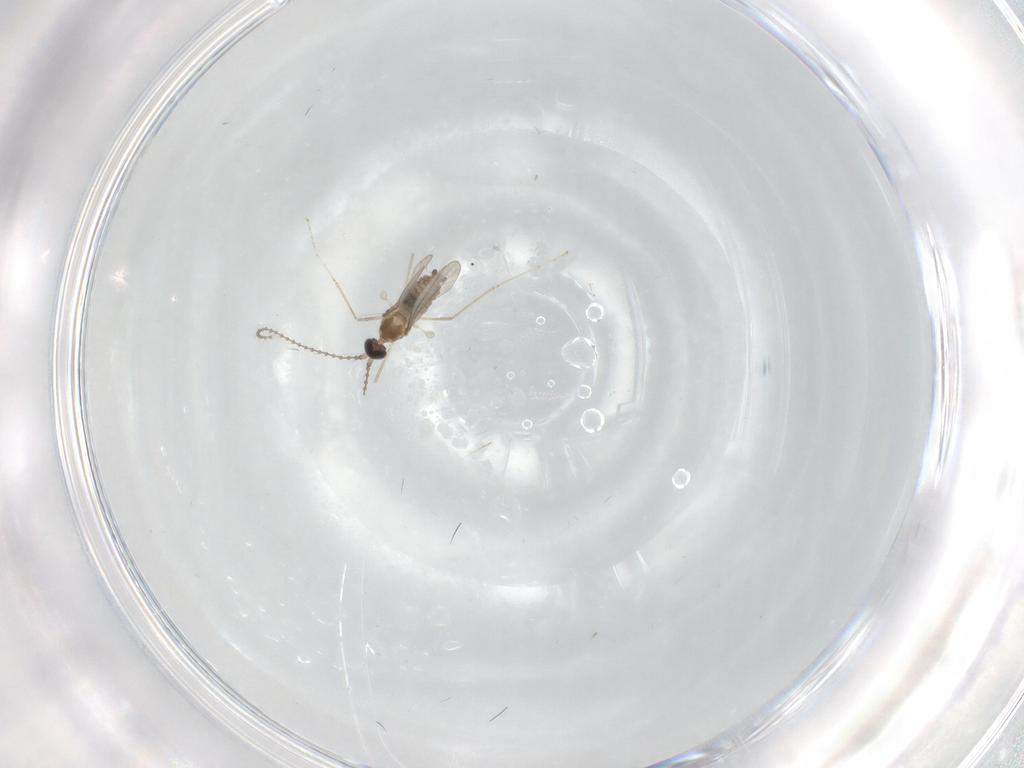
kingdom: Animalia
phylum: Arthropoda
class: Insecta
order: Diptera
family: Cecidomyiidae
